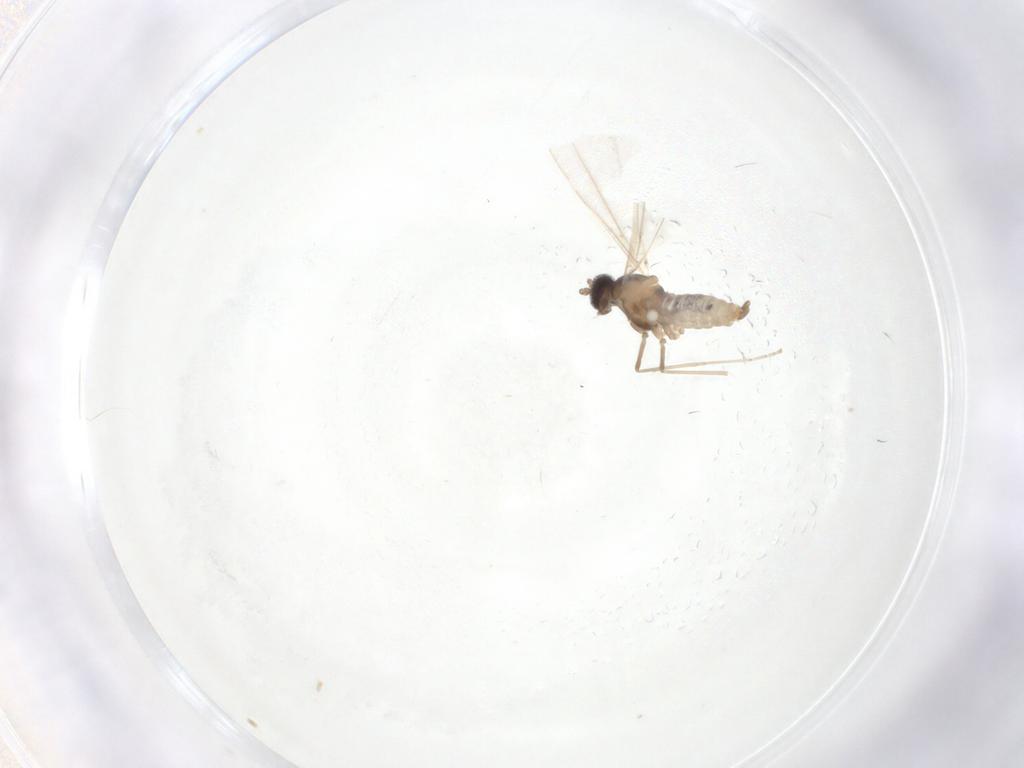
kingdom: Animalia
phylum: Arthropoda
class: Insecta
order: Diptera
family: Cecidomyiidae
